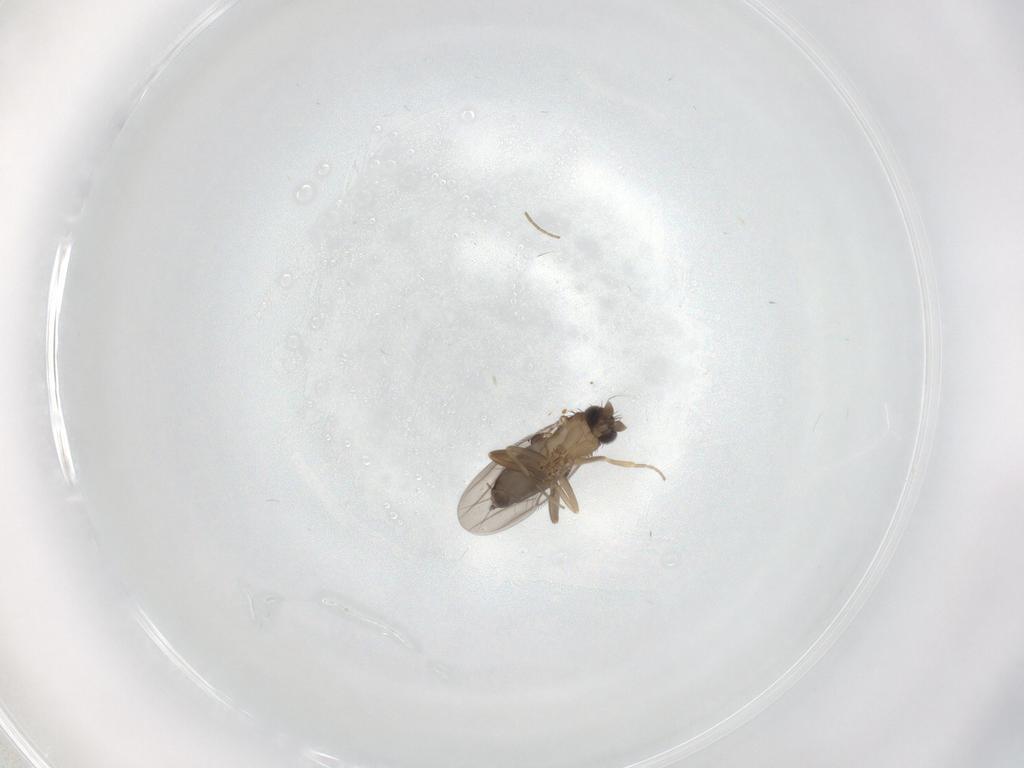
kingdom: Animalia
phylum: Arthropoda
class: Insecta
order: Diptera
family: Phoridae
